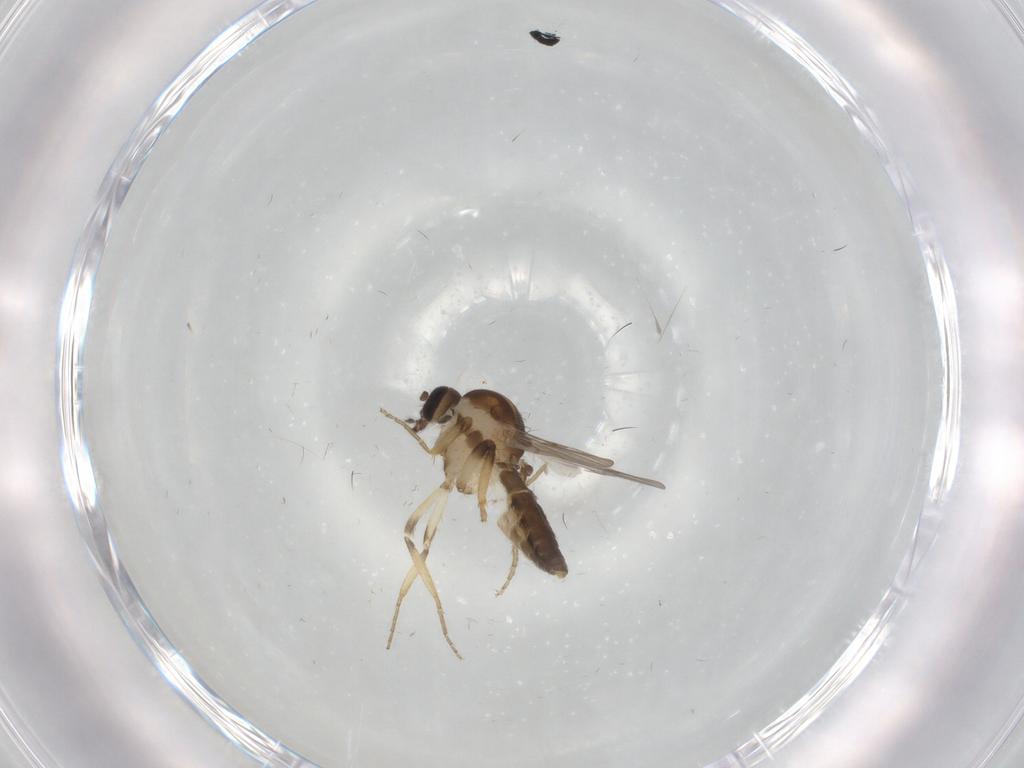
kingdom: Animalia
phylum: Arthropoda
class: Insecta
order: Diptera
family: Ceratopogonidae
